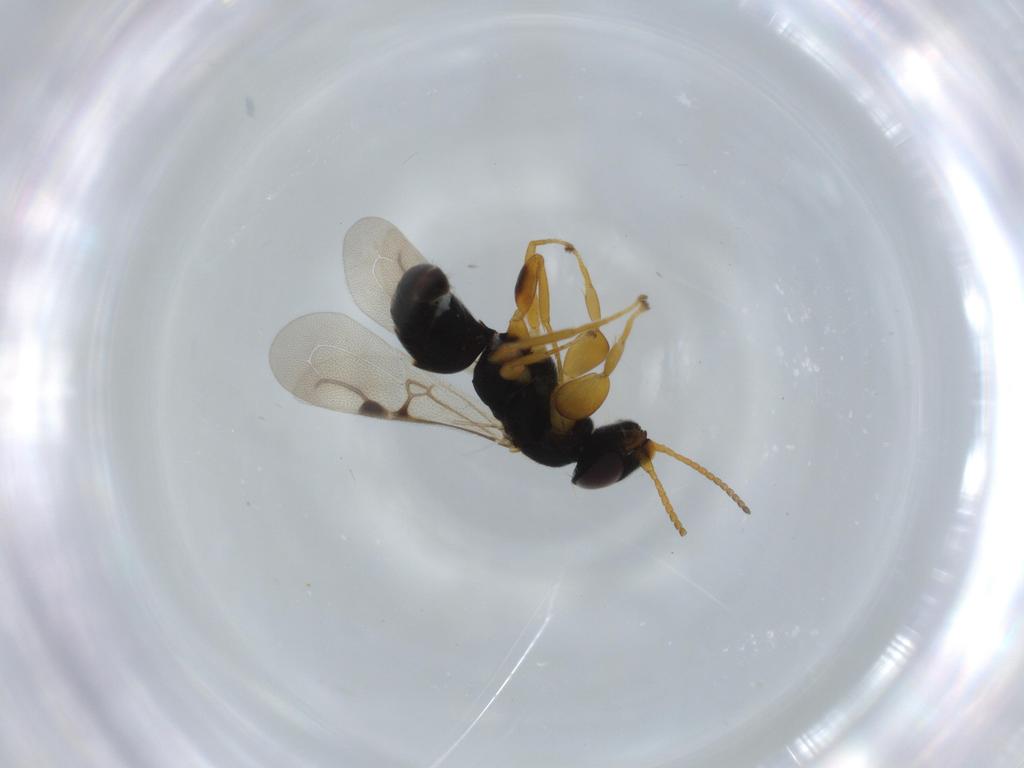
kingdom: Animalia
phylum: Arthropoda
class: Insecta
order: Hymenoptera
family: Bethylidae
